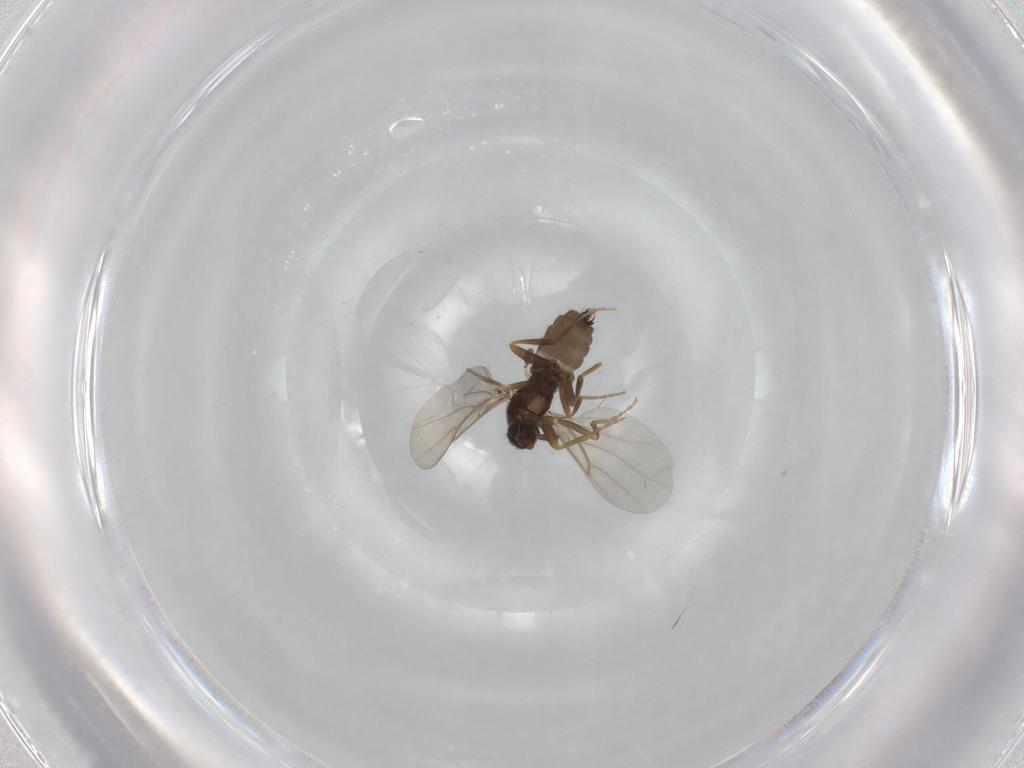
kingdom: Animalia
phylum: Arthropoda
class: Insecta
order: Diptera
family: Phoridae
